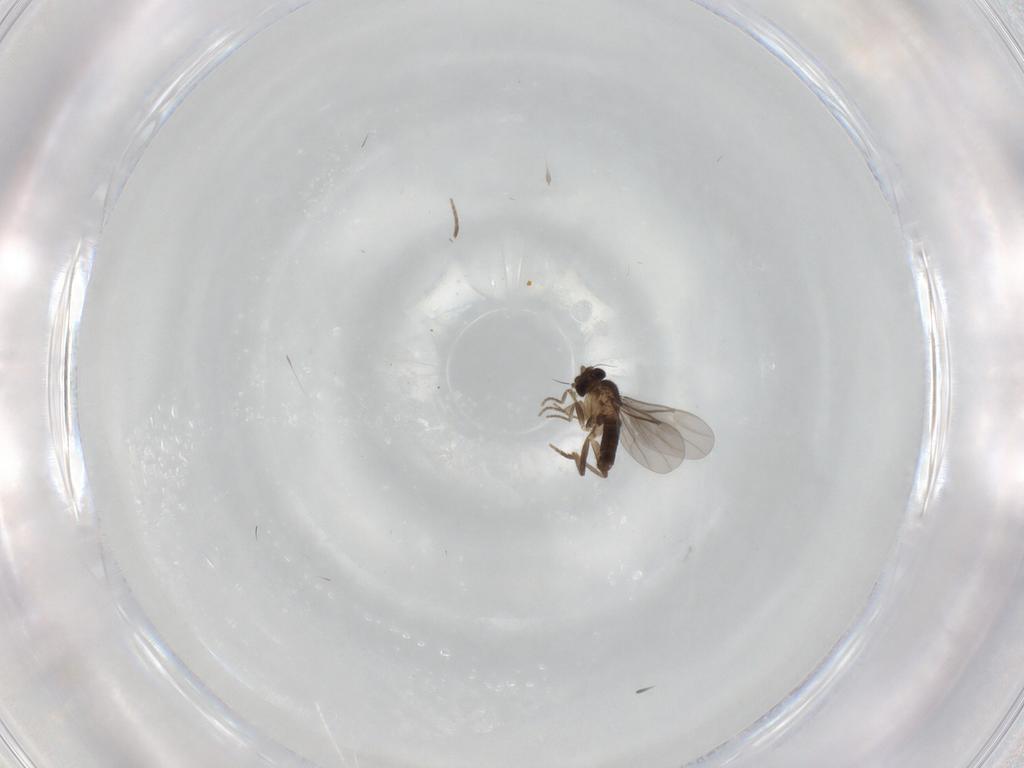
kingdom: Animalia
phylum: Arthropoda
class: Insecta
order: Diptera
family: Chironomidae
